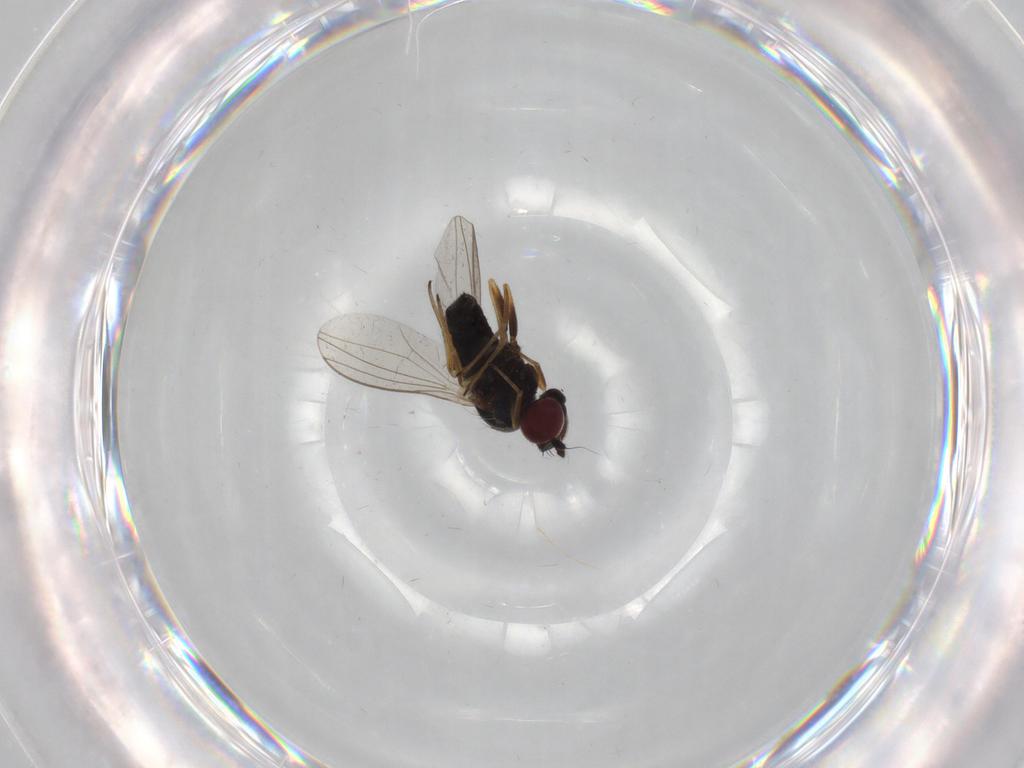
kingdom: Animalia
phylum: Arthropoda
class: Insecta
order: Diptera
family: Dolichopodidae
